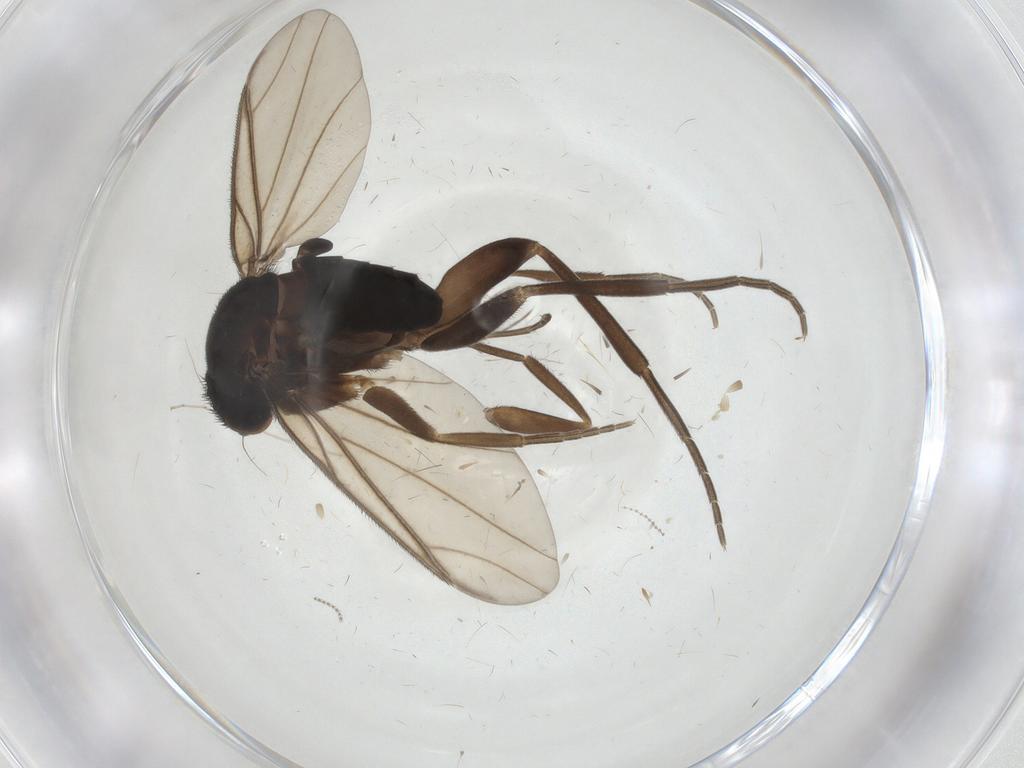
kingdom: Animalia
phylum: Arthropoda
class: Insecta
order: Diptera
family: Phoridae
